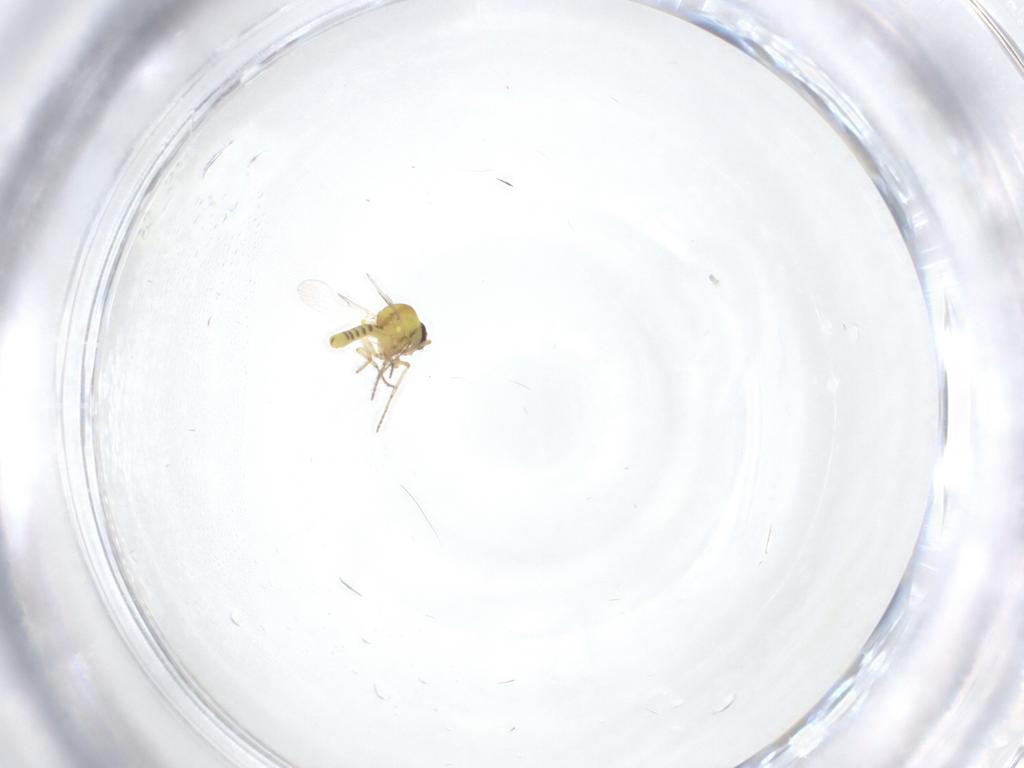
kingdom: Animalia
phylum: Arthropoda
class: Insecta
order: Diptera
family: Ceratopogonidae
